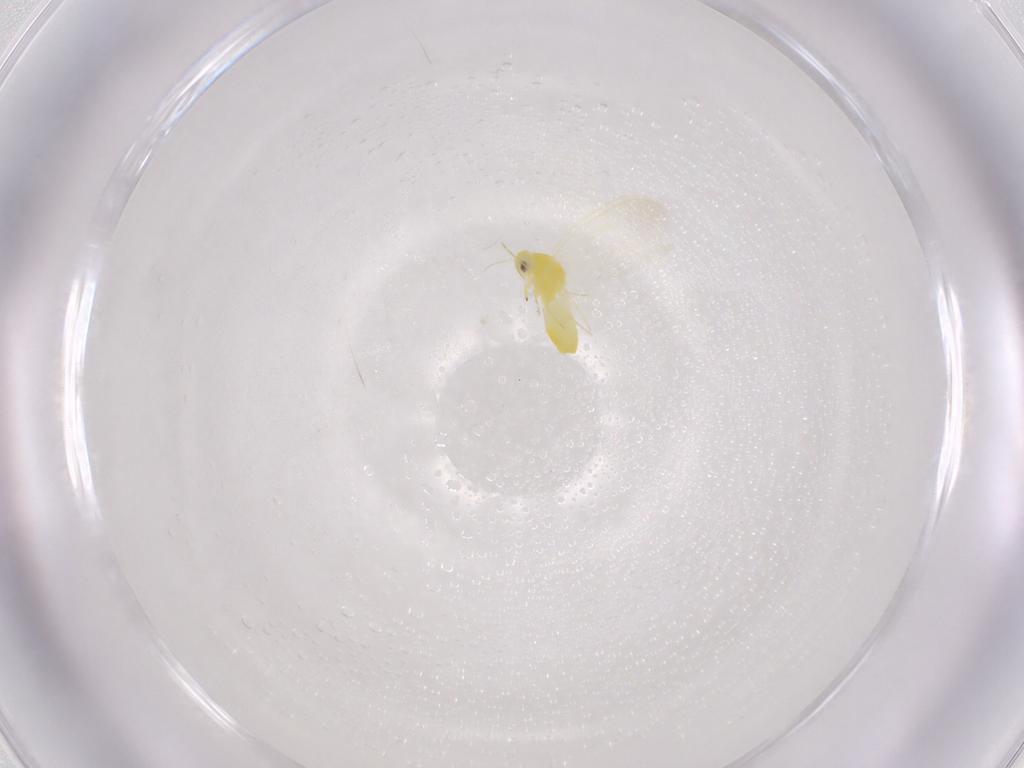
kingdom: Animalia
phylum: Arthropoda
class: Insecta
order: Hemiptera
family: Aleyrodidae
